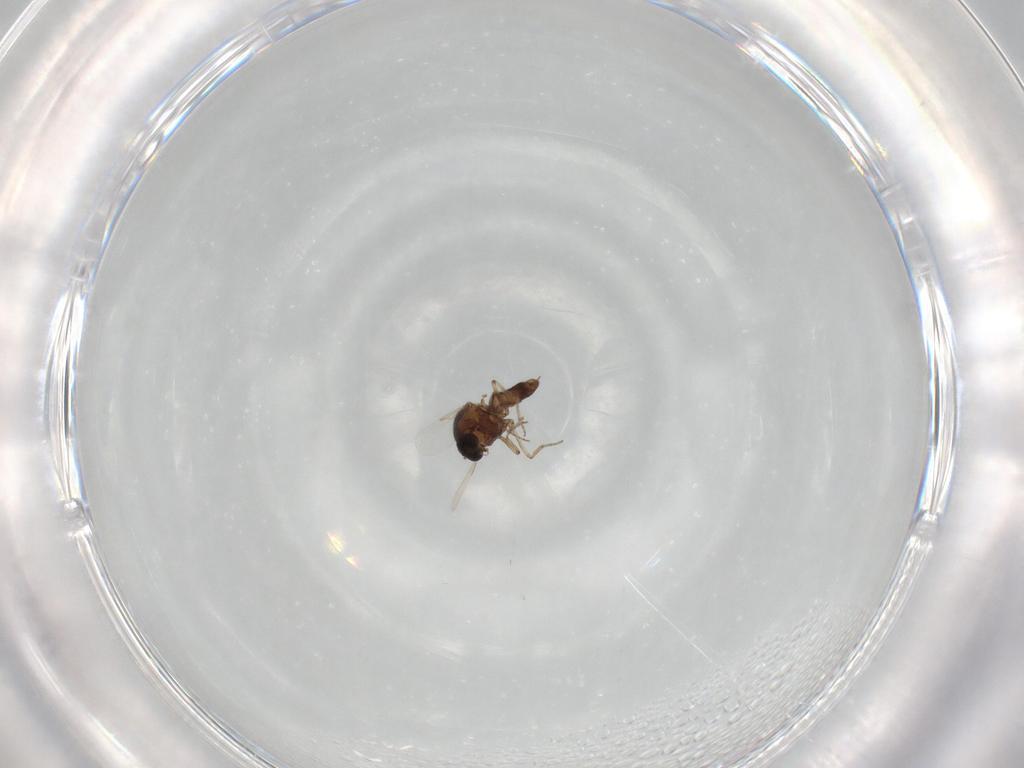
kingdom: Animalia
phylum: Arthropoda
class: Insecta
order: Diptera
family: Ceratopogonidae
